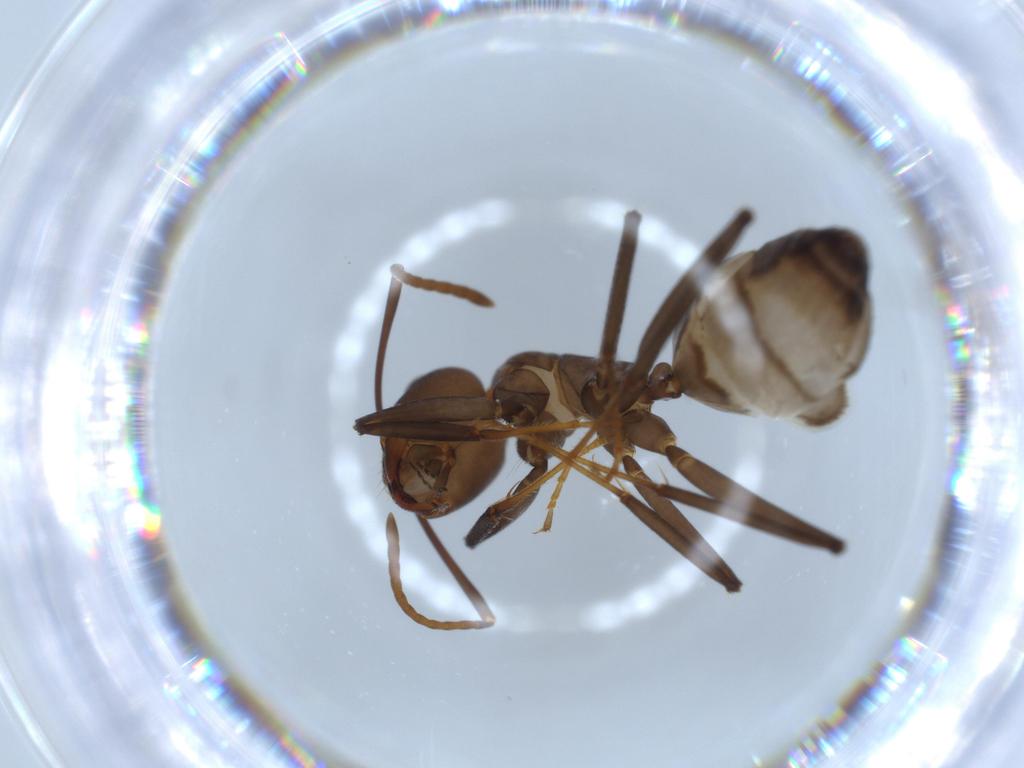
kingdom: Animalia
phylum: Arthropoda
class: Insecta
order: Hymenoptera
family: Formicidae
